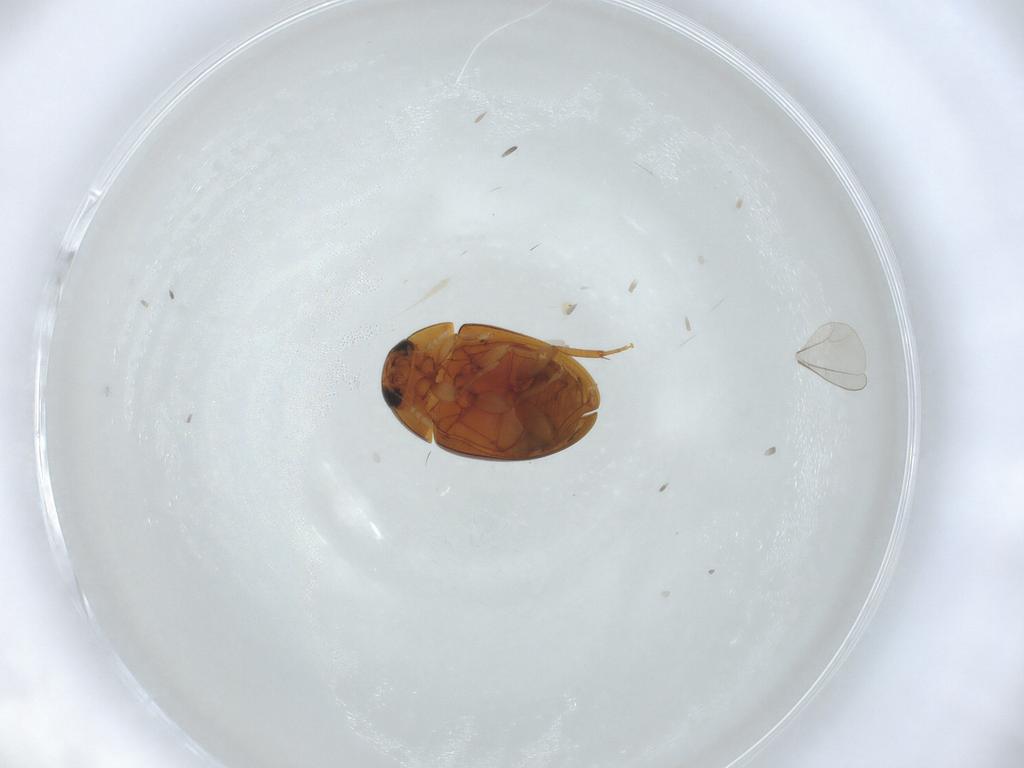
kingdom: Animalia
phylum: Arthropoda
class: Insecta
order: Coleoptera
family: Phalacridae
